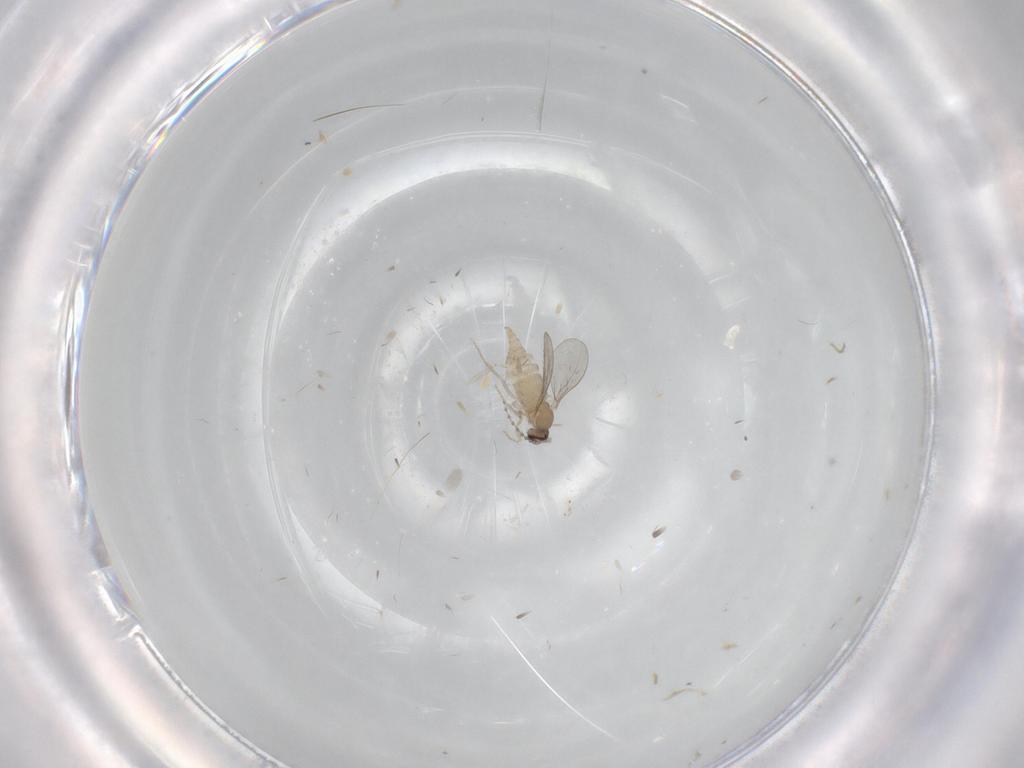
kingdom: Animalia
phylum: Arthropoda
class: Insecta
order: Diptera
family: Cecidomyiidae
